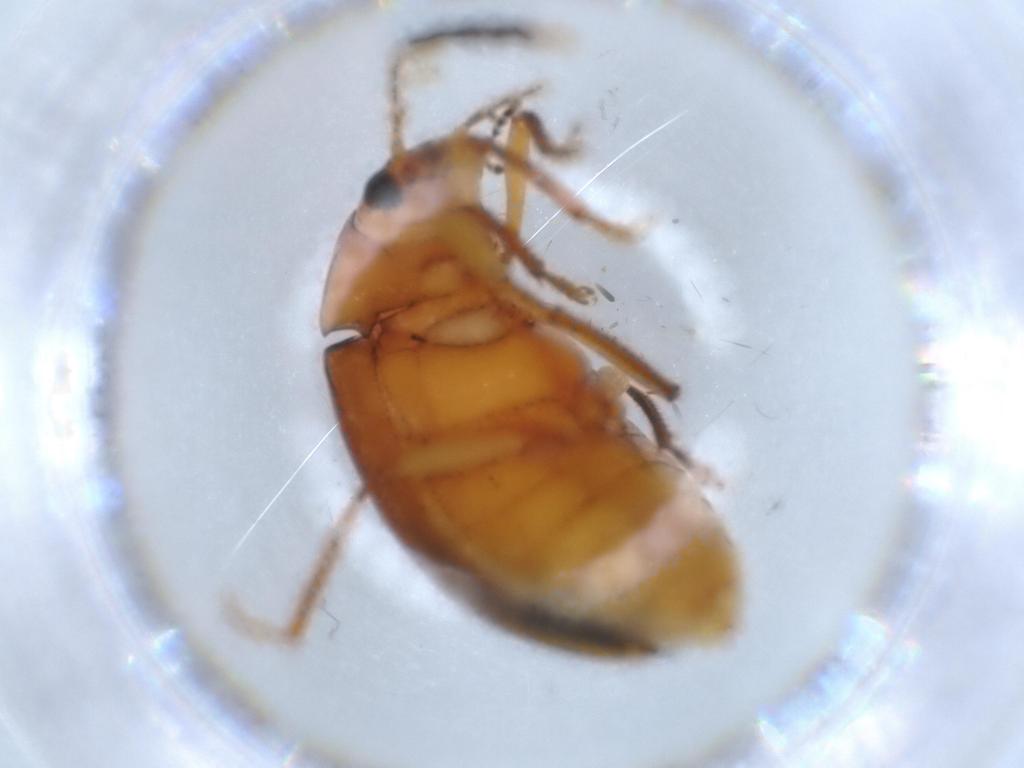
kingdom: Animalia
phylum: Arthropoda
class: Insecta
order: Coleoptera
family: Ptilodactylidae
